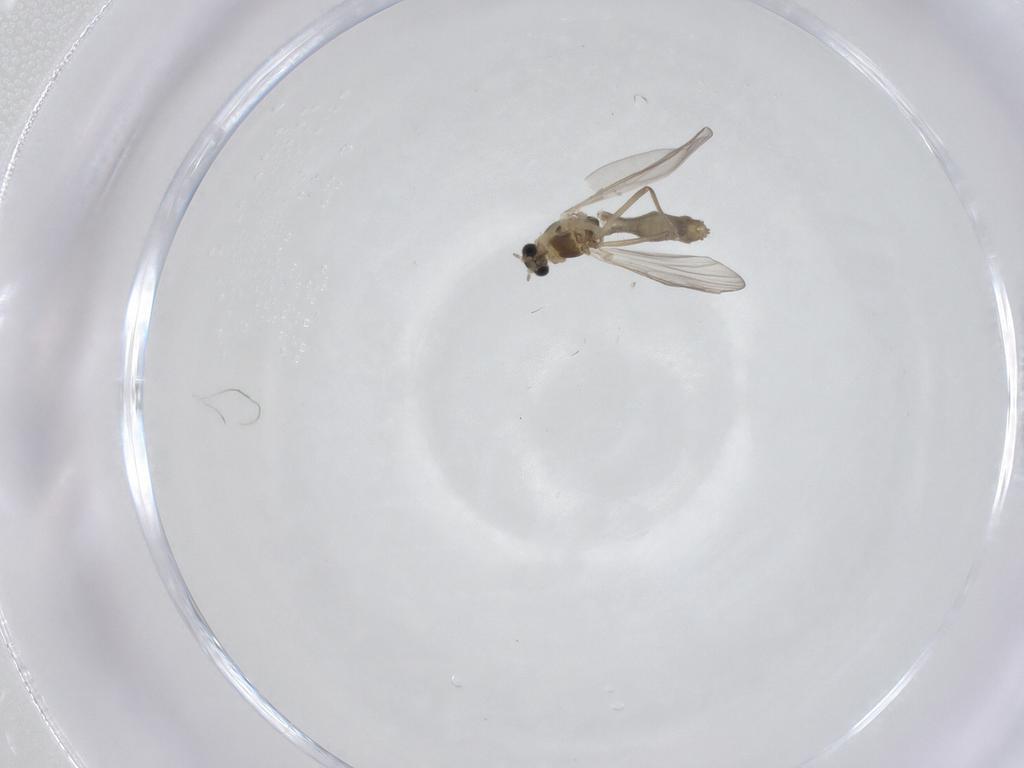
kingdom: Animalia
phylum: Arthropoda
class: Insecta
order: Diptera
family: Chironomidae
